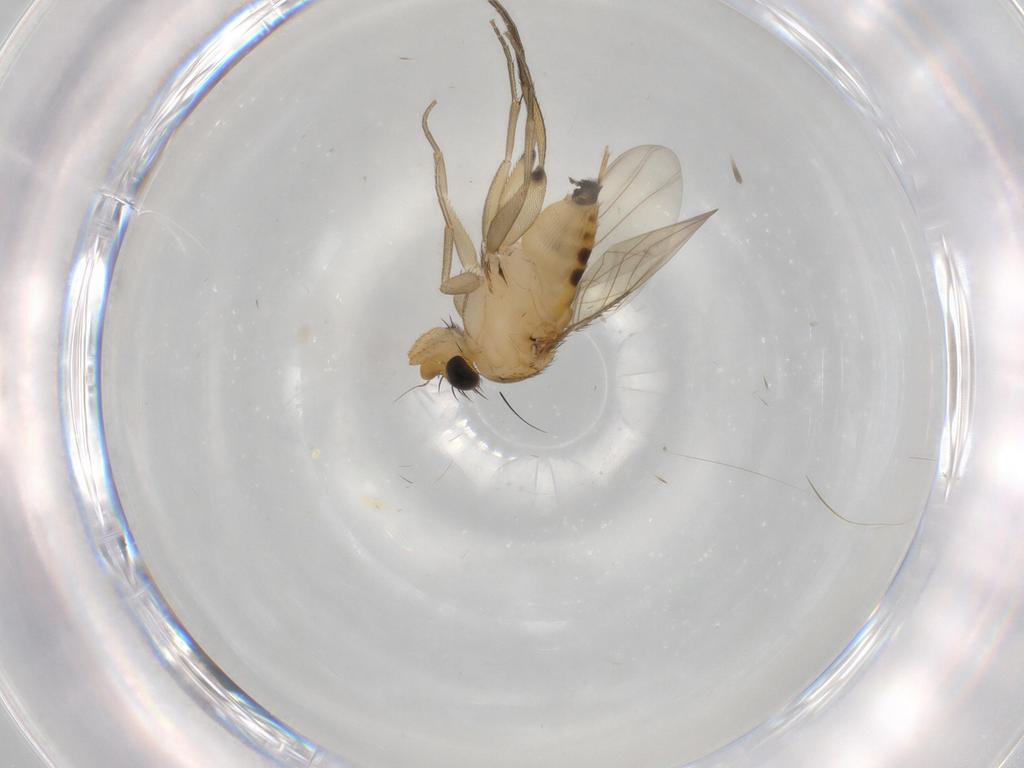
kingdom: Animalia
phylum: Arthropoda
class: Insecta
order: Diptera
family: Phoridae
